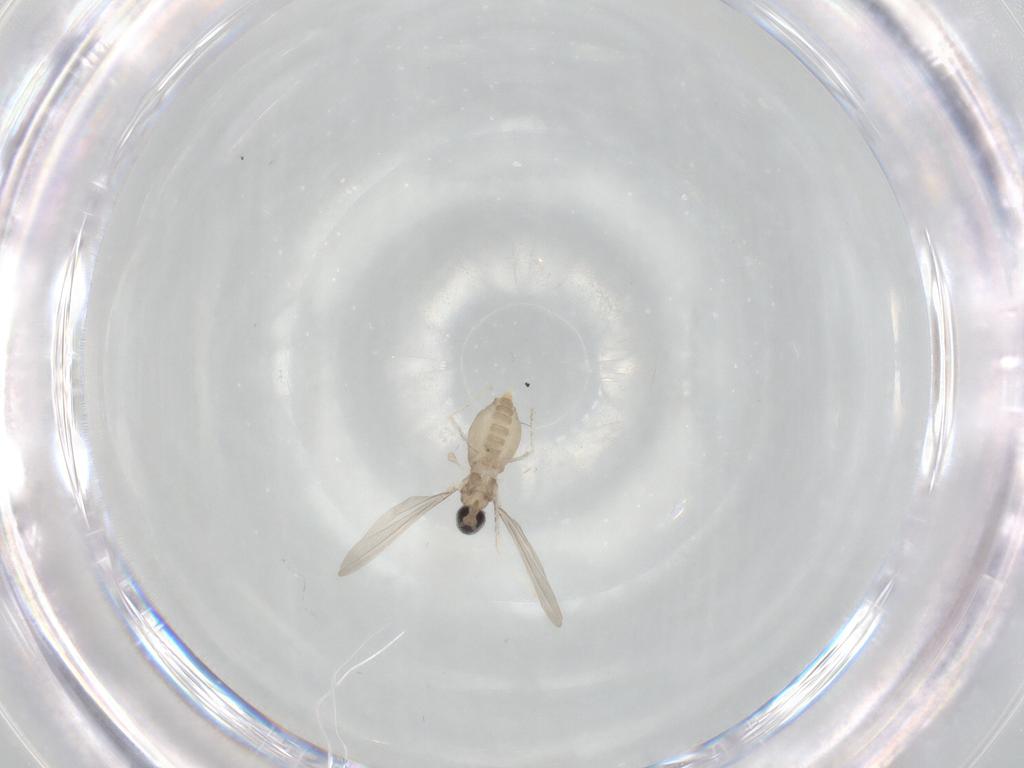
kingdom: Animalia
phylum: Arthropoda
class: Insecta
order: Diptera
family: Cecidomyiidae
